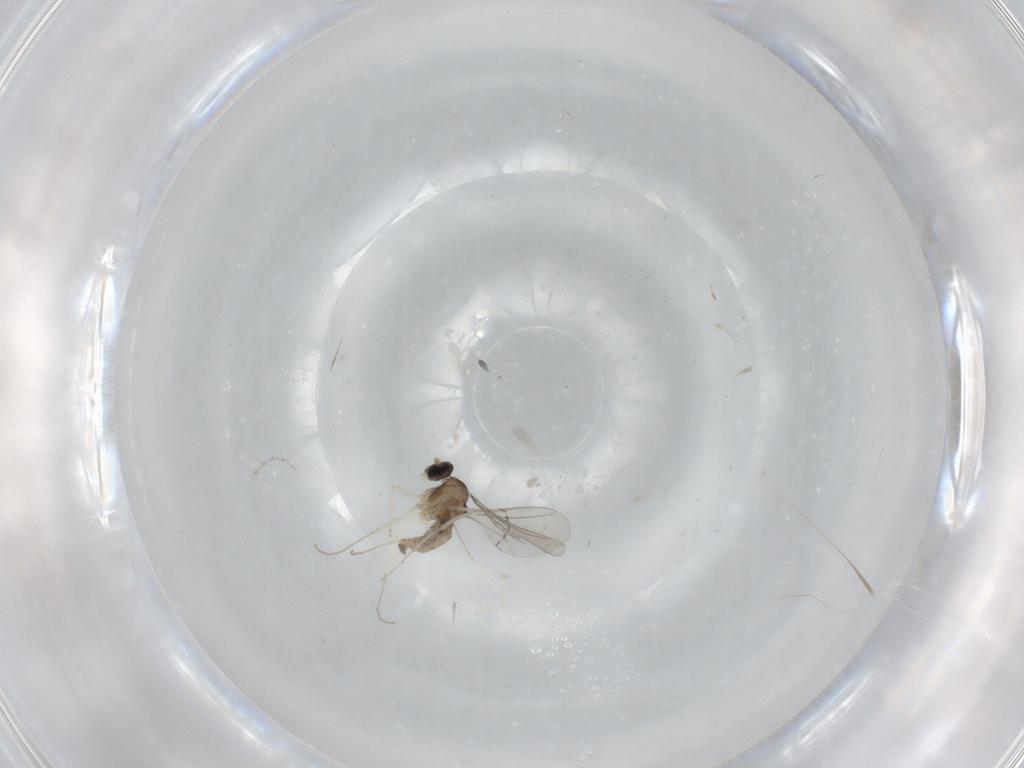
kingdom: Animalia
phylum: Arthropoda
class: Insecta
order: Diptera
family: Cecidomyiidae
